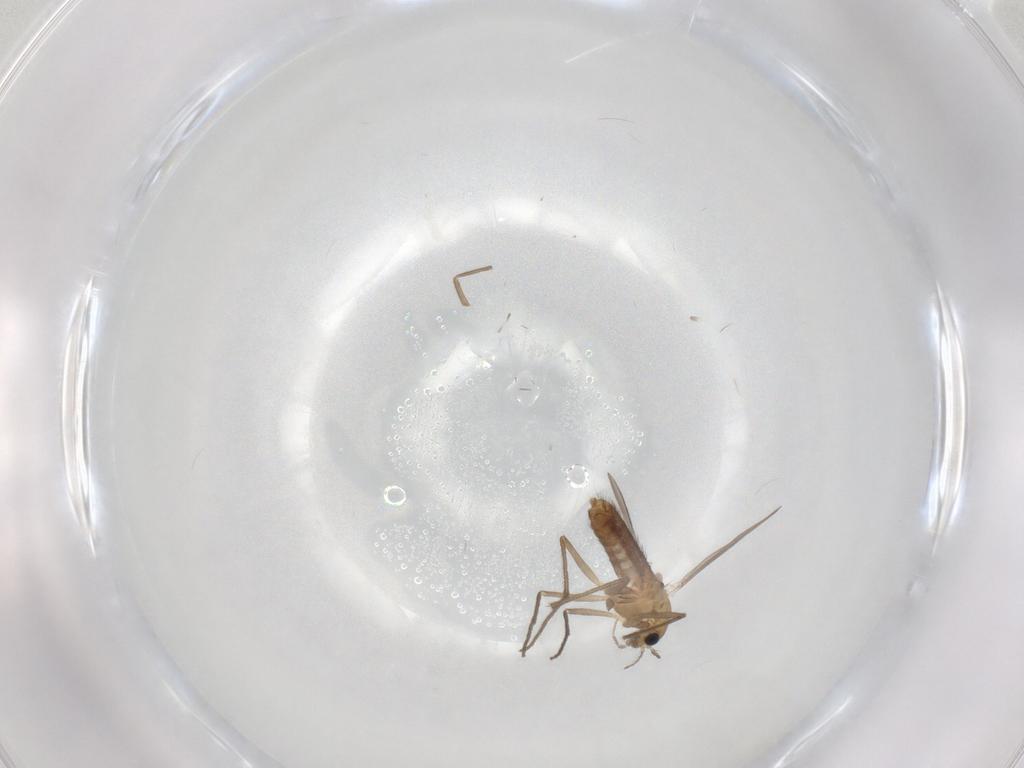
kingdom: Animalia
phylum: Arthropoda
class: Insecta
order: Diptera
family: Chironomidae
